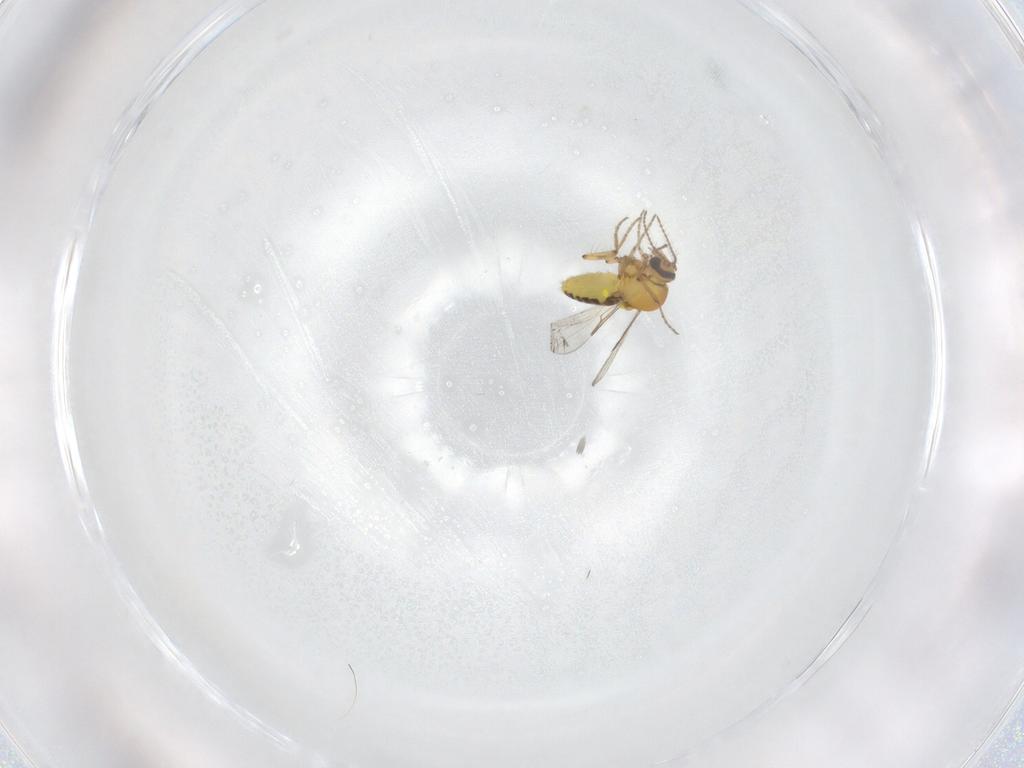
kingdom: Animalia
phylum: Arthropoda
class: Insecta
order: Diptera
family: Ceratopogonidae
